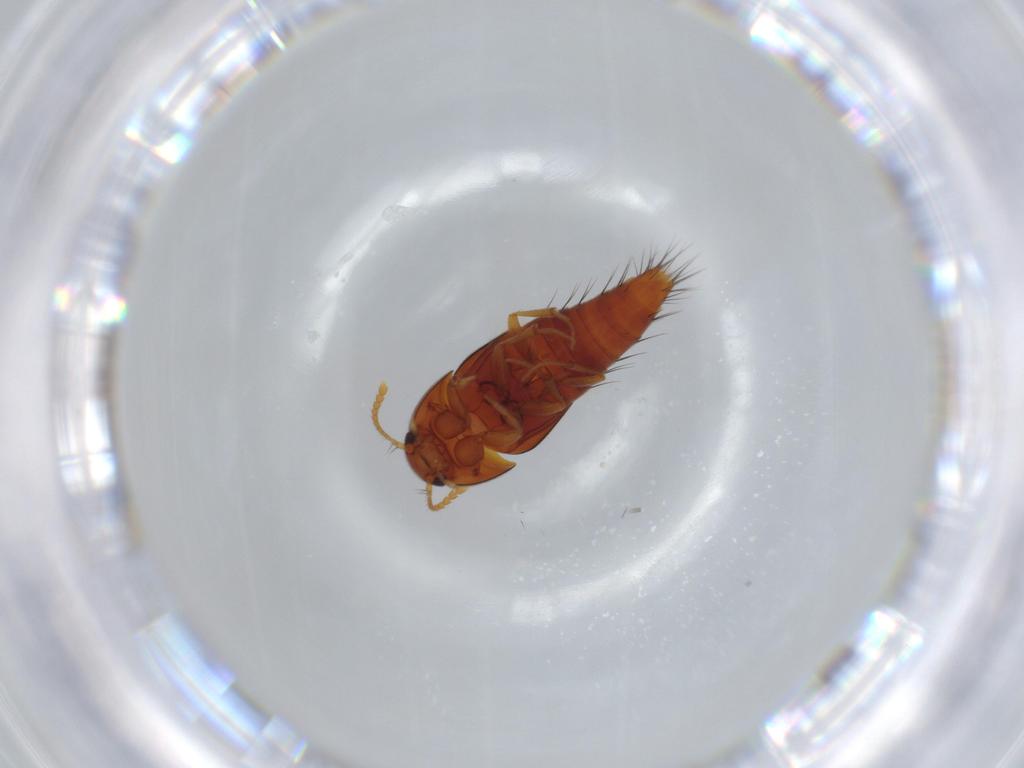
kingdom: Animalia
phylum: Arthropoda
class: Insecta
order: Coleoptera
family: Staphylinidae
